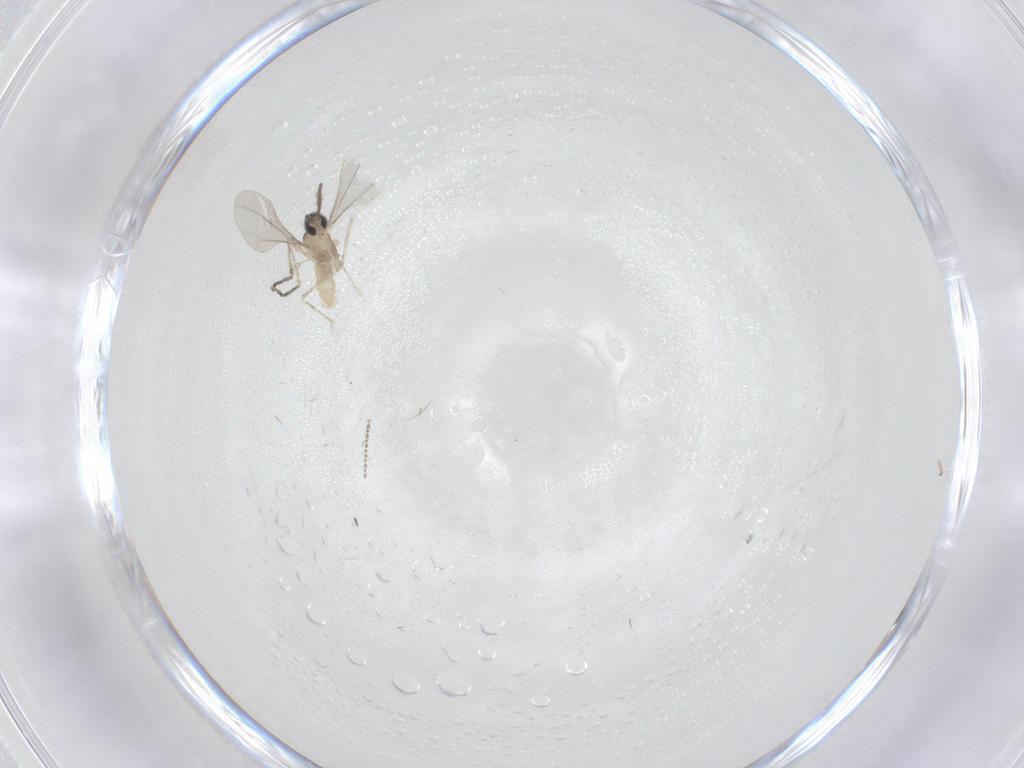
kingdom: Animalia
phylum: Arthropoda
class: Insecta
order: Diptera
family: Cecidomyiidae
